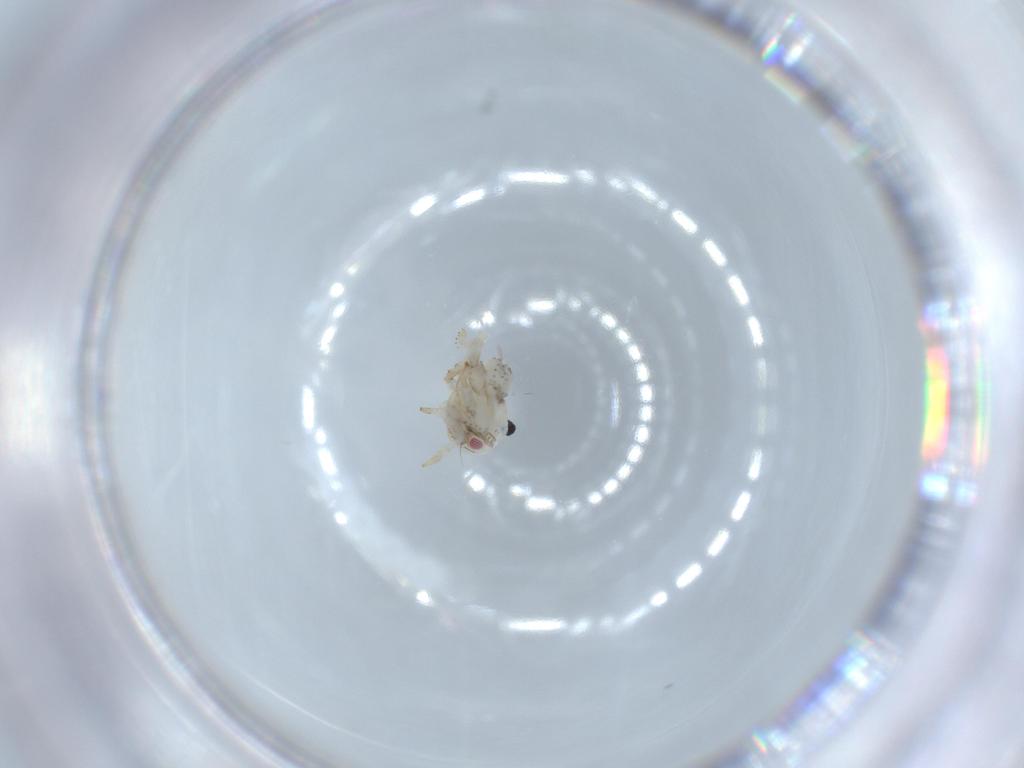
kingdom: Animalia
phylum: Arthropoda
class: Insecta
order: Hemiptera
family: Acanaloniidae
